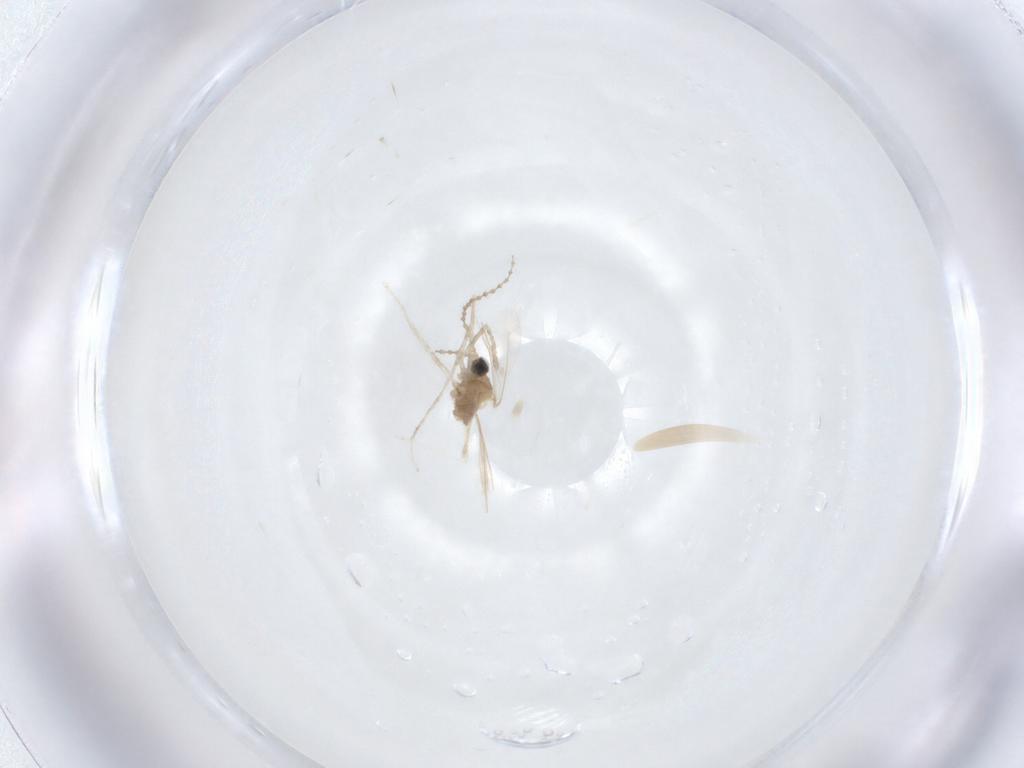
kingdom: Animalia
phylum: Arthropoda
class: Insecta
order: Diptera
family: Cecidomyiidae
